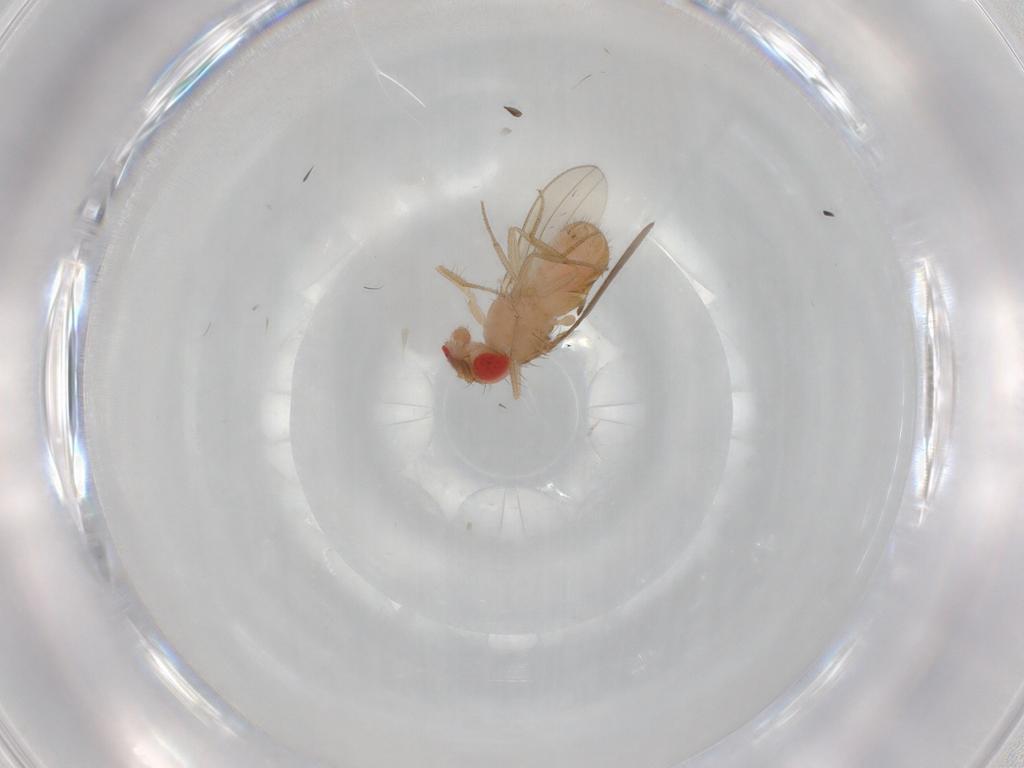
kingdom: Animalia
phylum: Arthropoda
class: Insecta
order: Diptera
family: Drosophilidae
